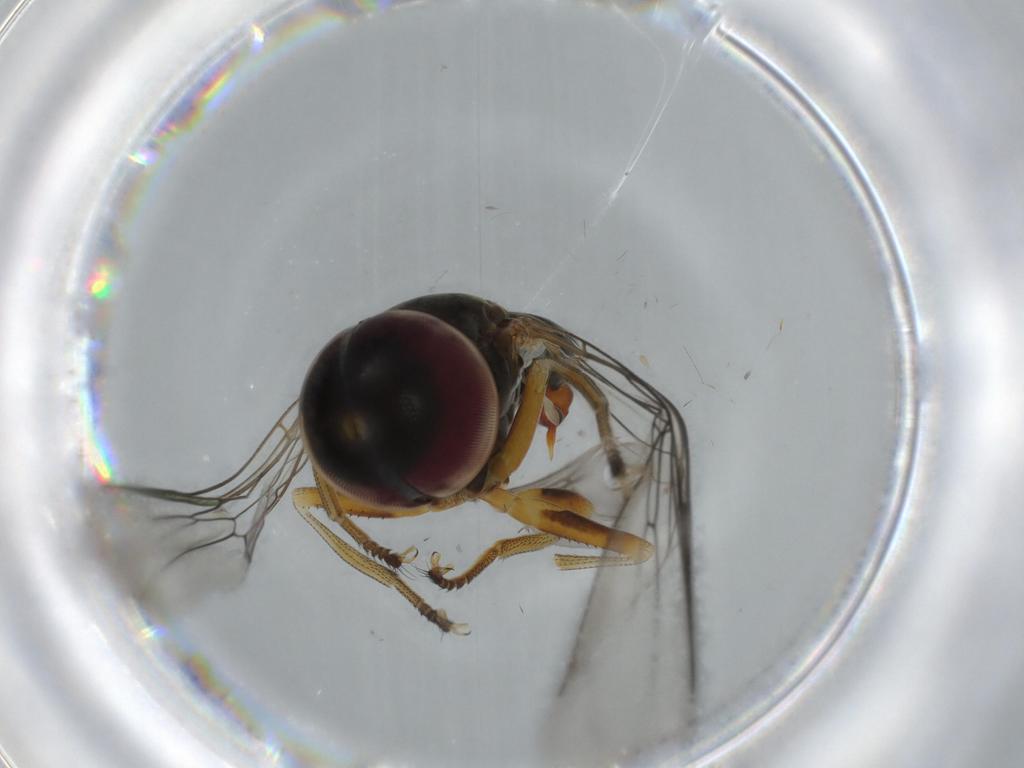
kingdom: Animalia
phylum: Arthropoda
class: Insecta
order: Diptera
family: Pipunculidae
